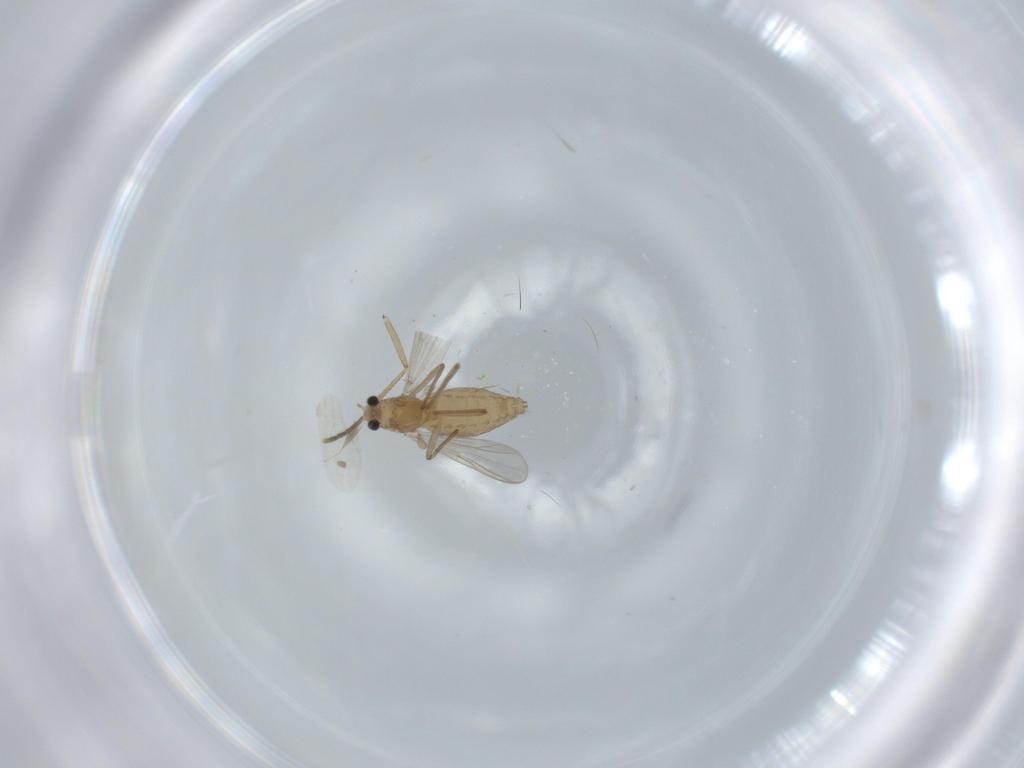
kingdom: Animalia
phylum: Arthropoda
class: Insecta
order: Diptera
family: Chironomidae
